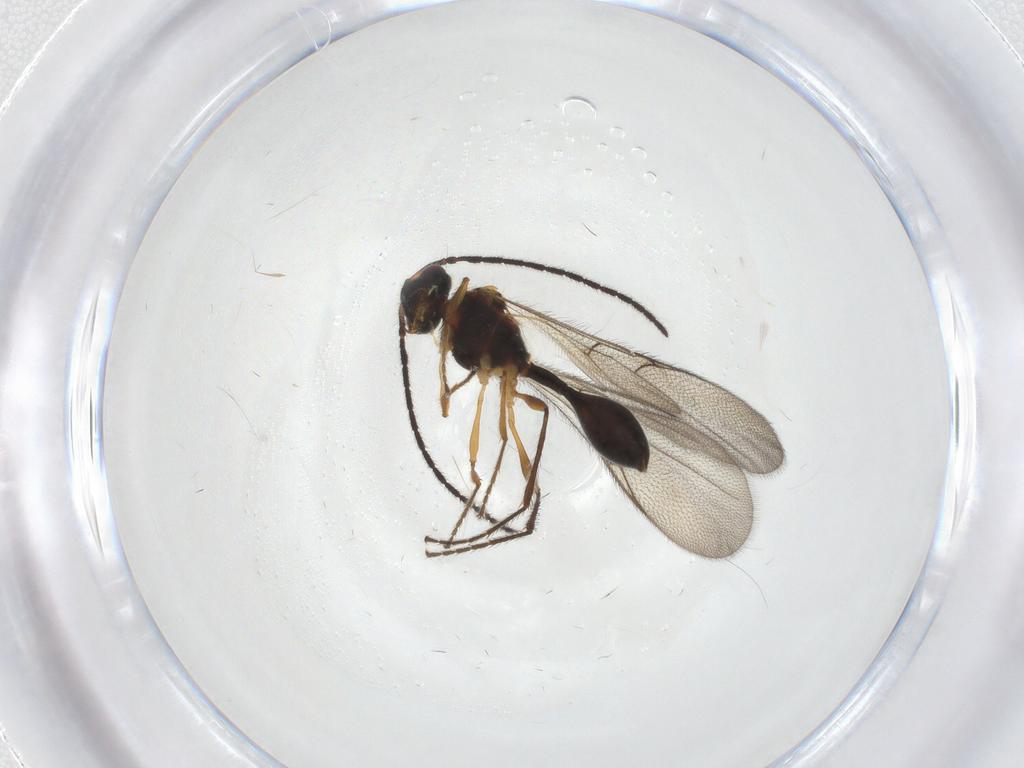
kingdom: Animalia
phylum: Arthropoda
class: Insecta
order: Hymenoptera
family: Diapriidae
